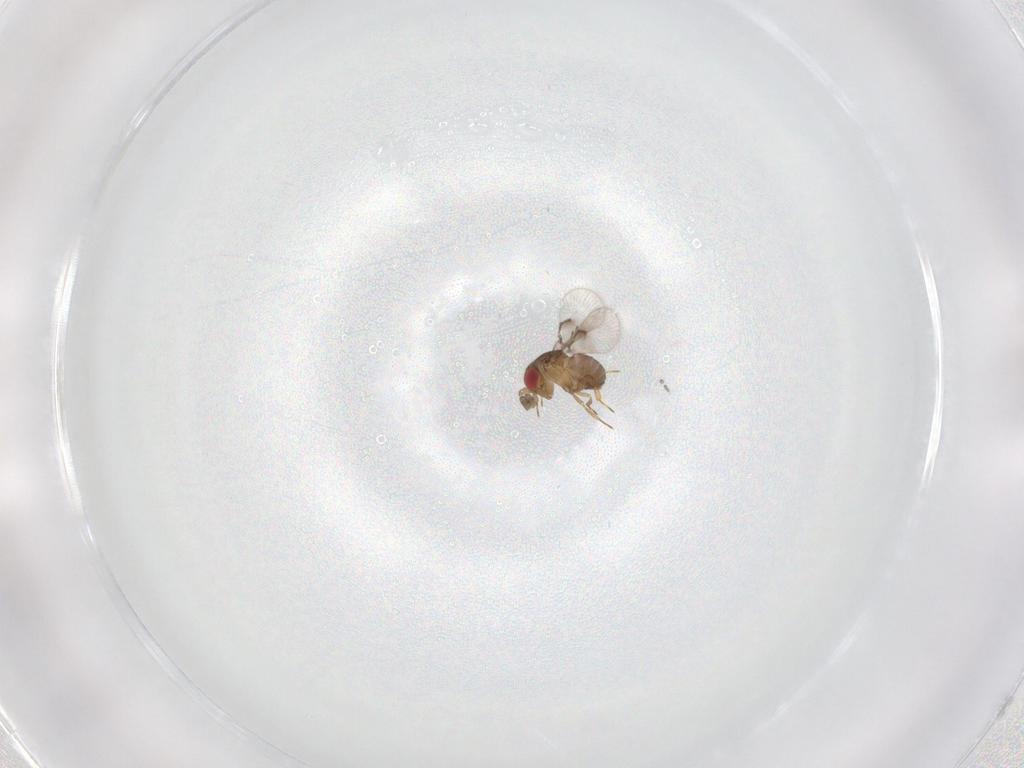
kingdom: Animalia
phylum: Arthropoda
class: Insecta
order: Hymenoptera
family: Trichogrammatidae
